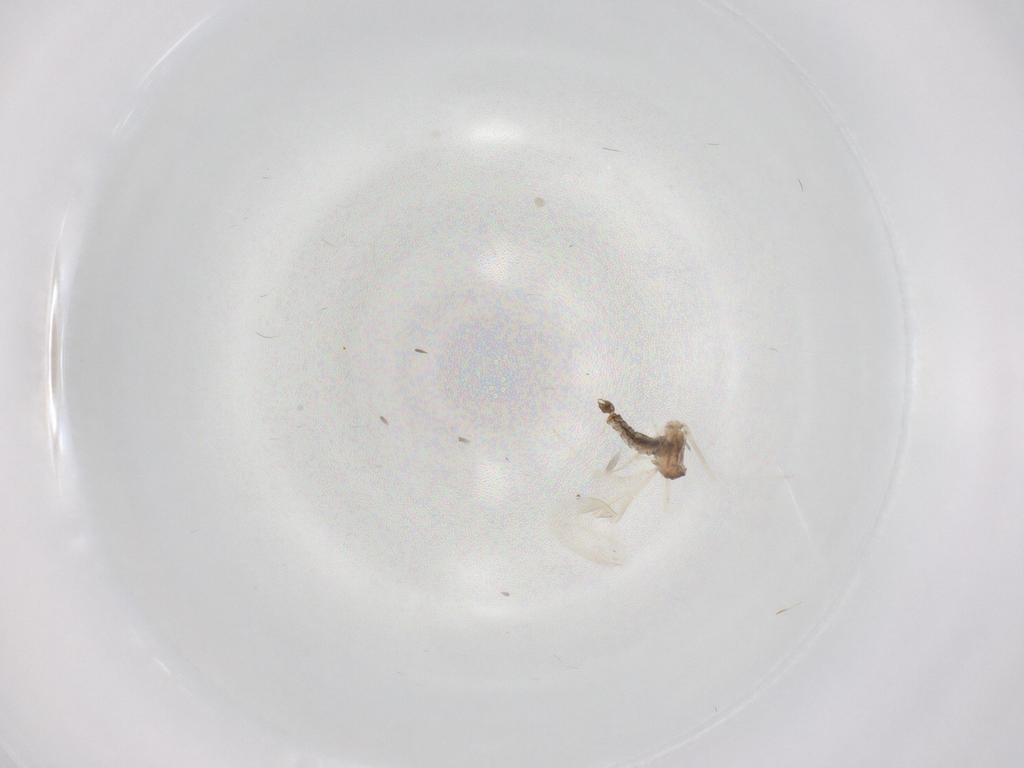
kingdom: Animalia
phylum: Arthropoda
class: Insecta
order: Diptera
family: Cecidomyiidae
